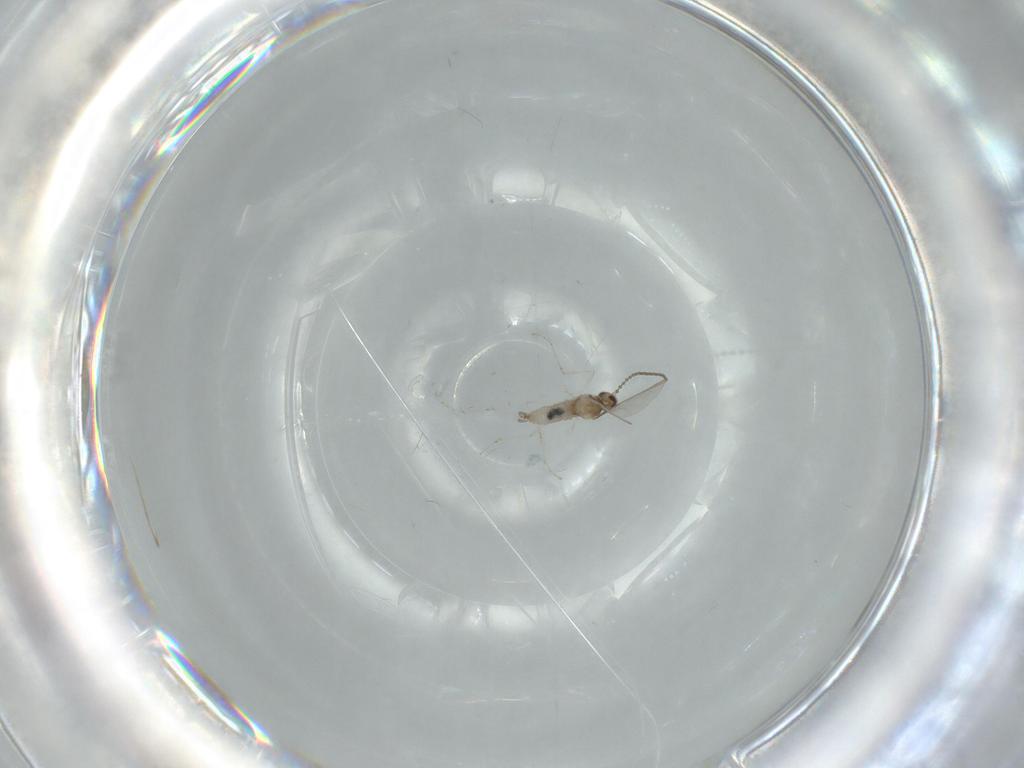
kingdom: Animalia
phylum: Arthropoda
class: Insecta
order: Diptera
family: Cecidomyiidae
